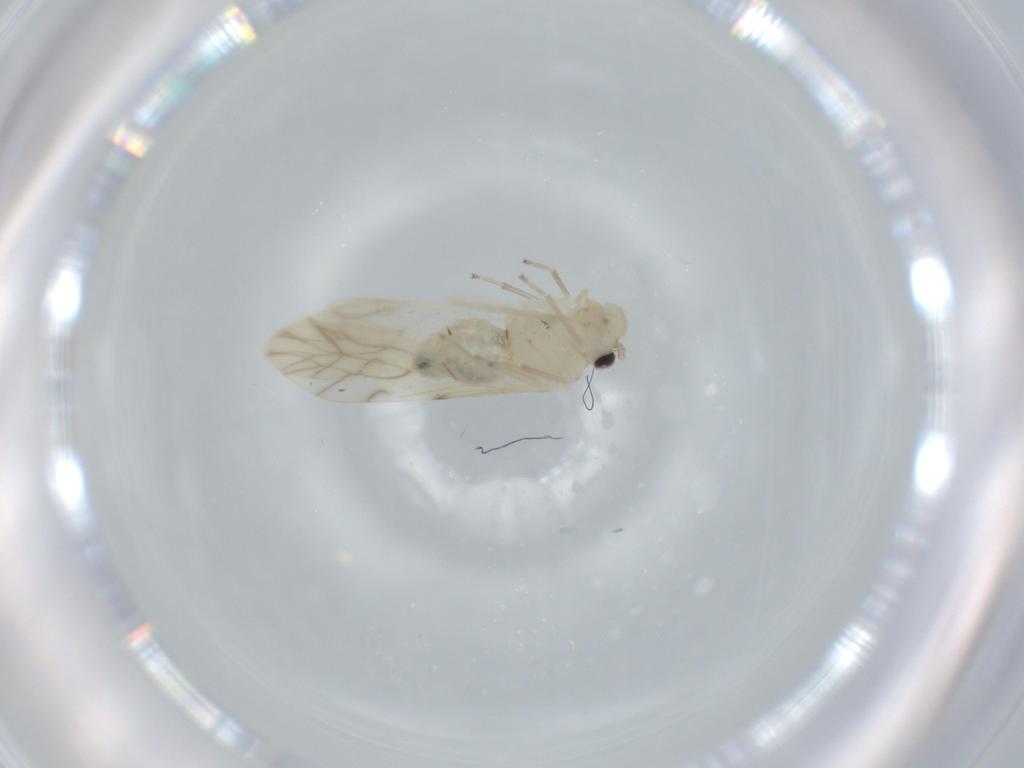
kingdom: Animalia
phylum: Arthropoda
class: Insecta
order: Psocodea
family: Caeciliusidae
